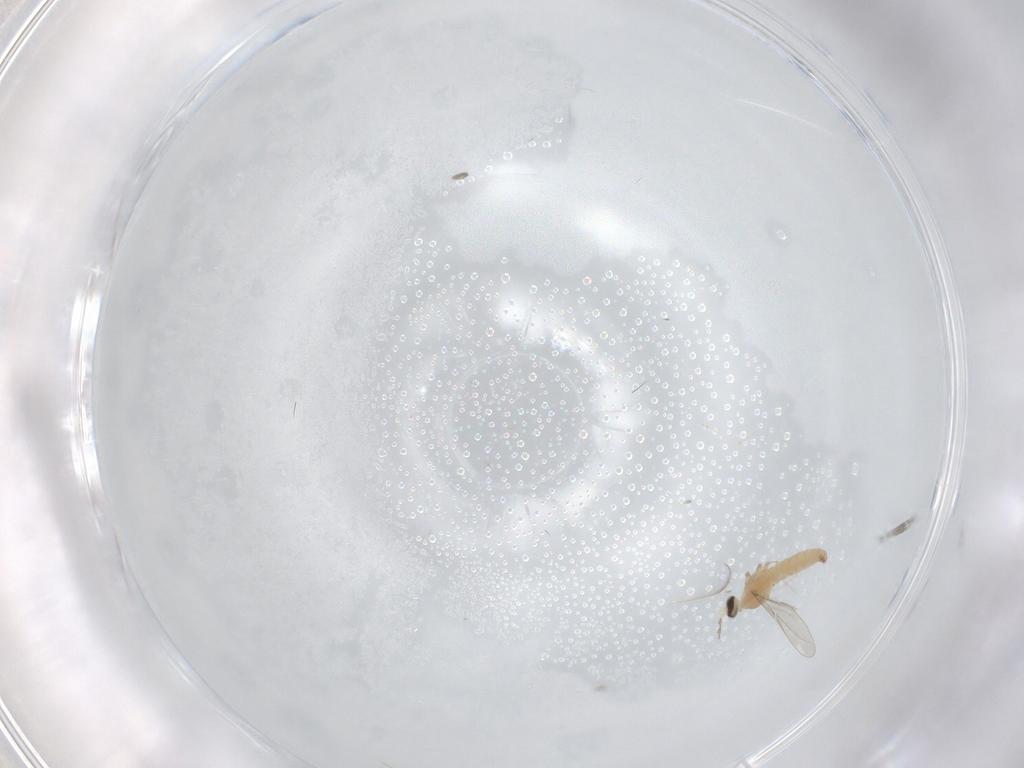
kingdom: Animalia
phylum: Arthropoda
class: Insecta
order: Diptera
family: Cecidomyiidae
